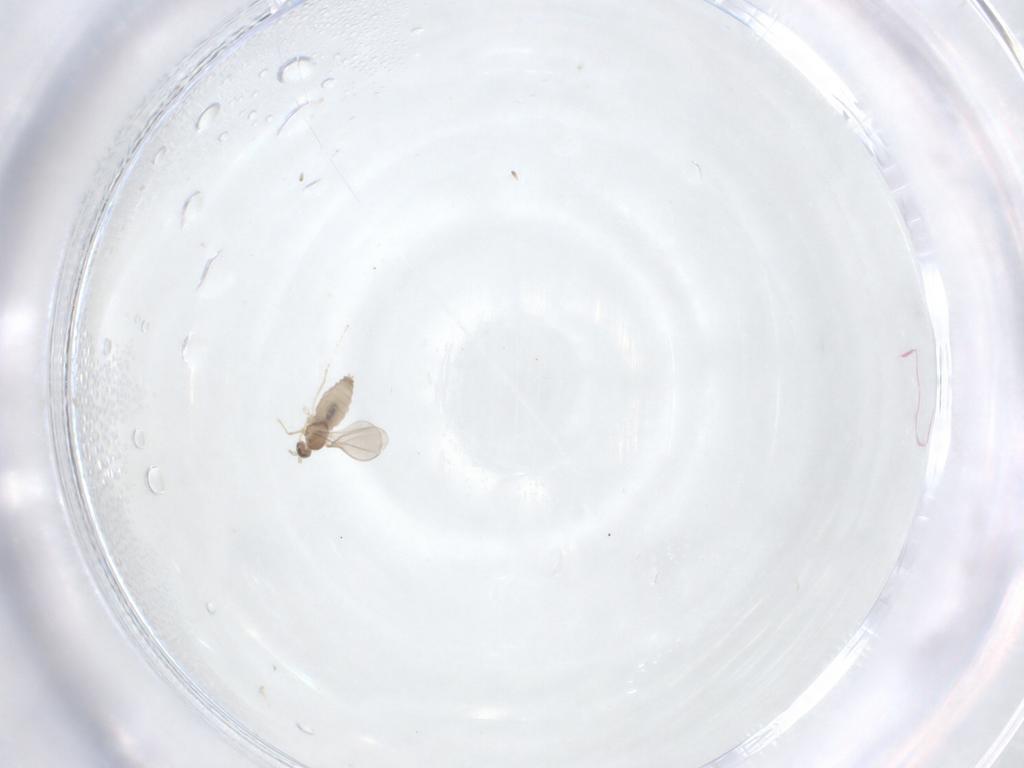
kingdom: Animalia
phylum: Arthropoda
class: Insecta
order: Diptera
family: Cecidomyiidae
